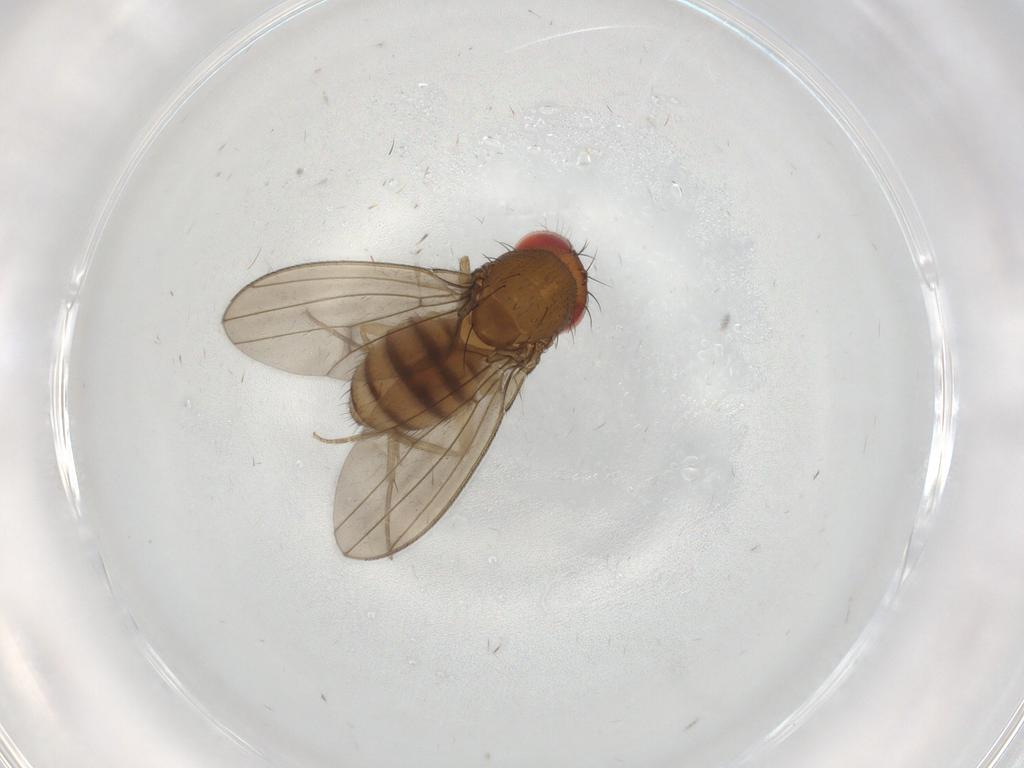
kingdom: Animalia
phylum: Arthropoda
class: Insecta
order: Diptera
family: Drosophilidae
